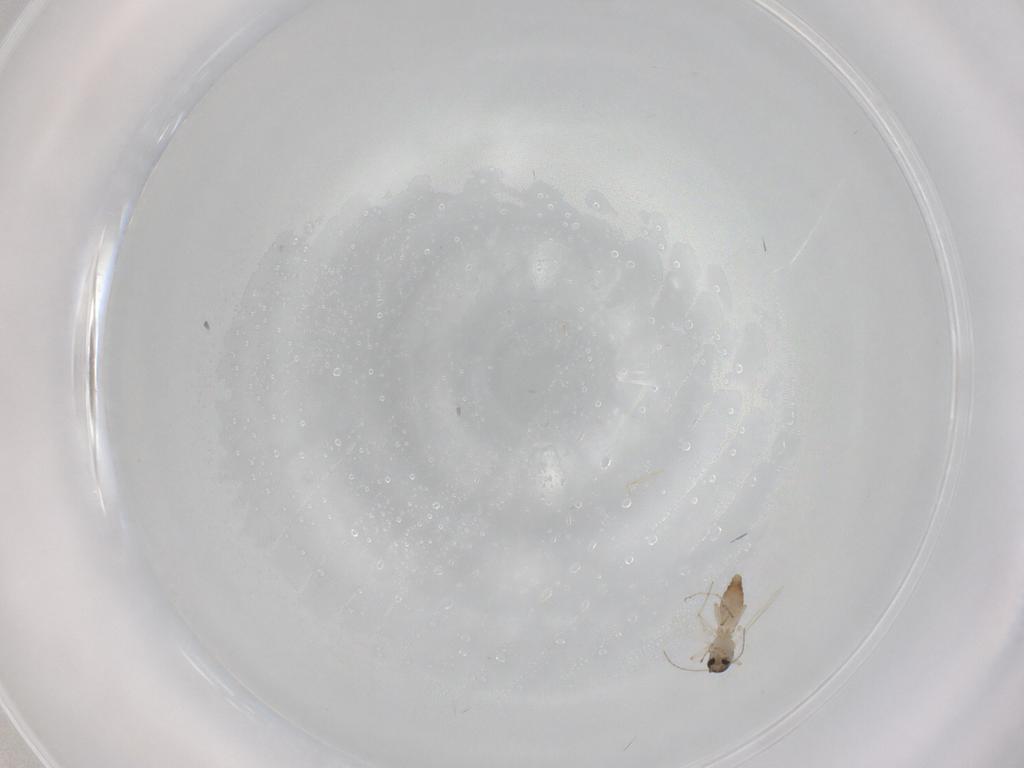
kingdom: Animalia
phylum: Arthropoda
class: Insecta
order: Diptera
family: Ceratopogonidae
